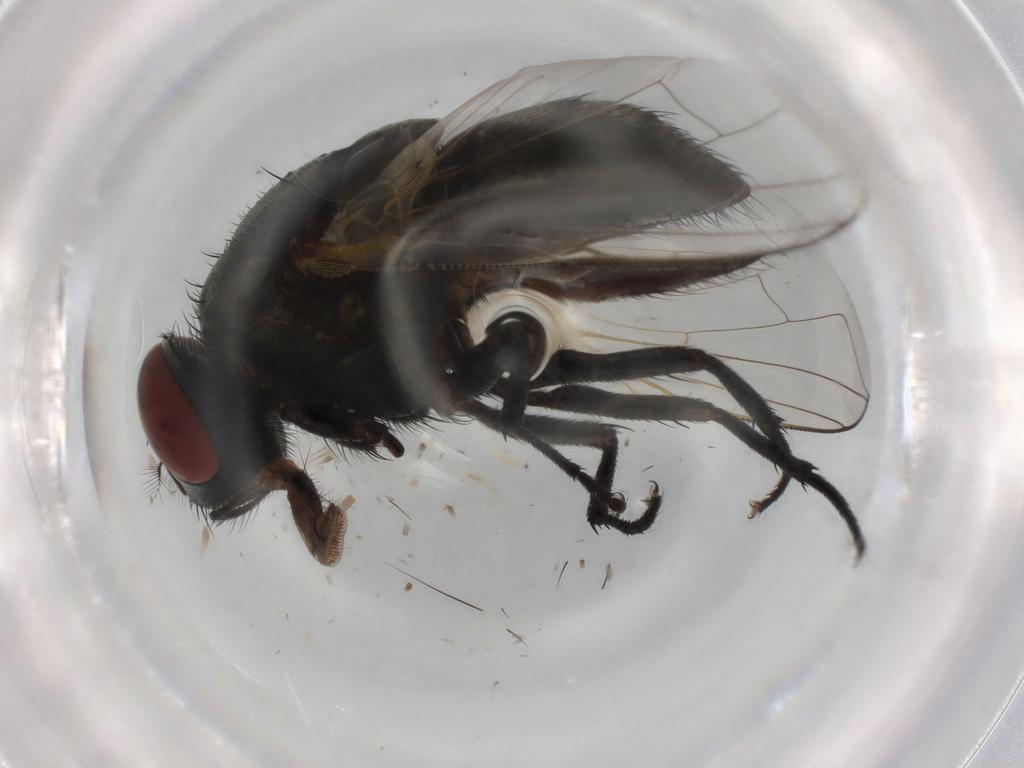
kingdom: Animalia
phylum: Arthropoda
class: Insecta
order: Diptera
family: Muscidae
